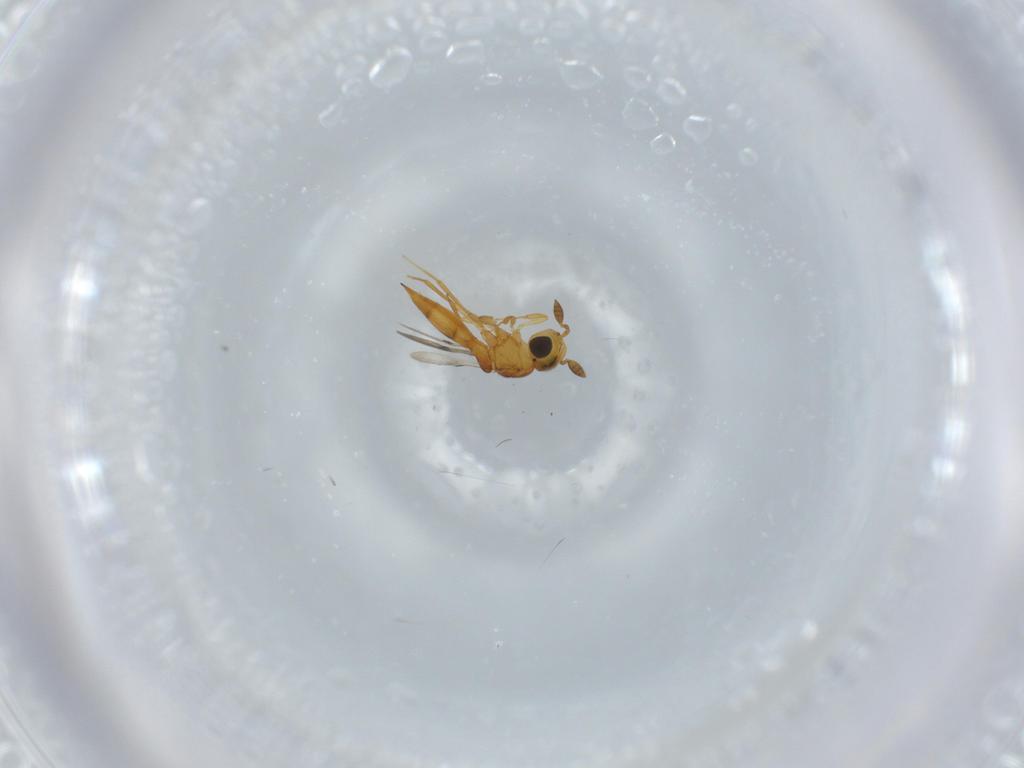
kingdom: Animalia
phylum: Arthropoda
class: Insecta
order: Hymenoptera
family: Scelionidae
